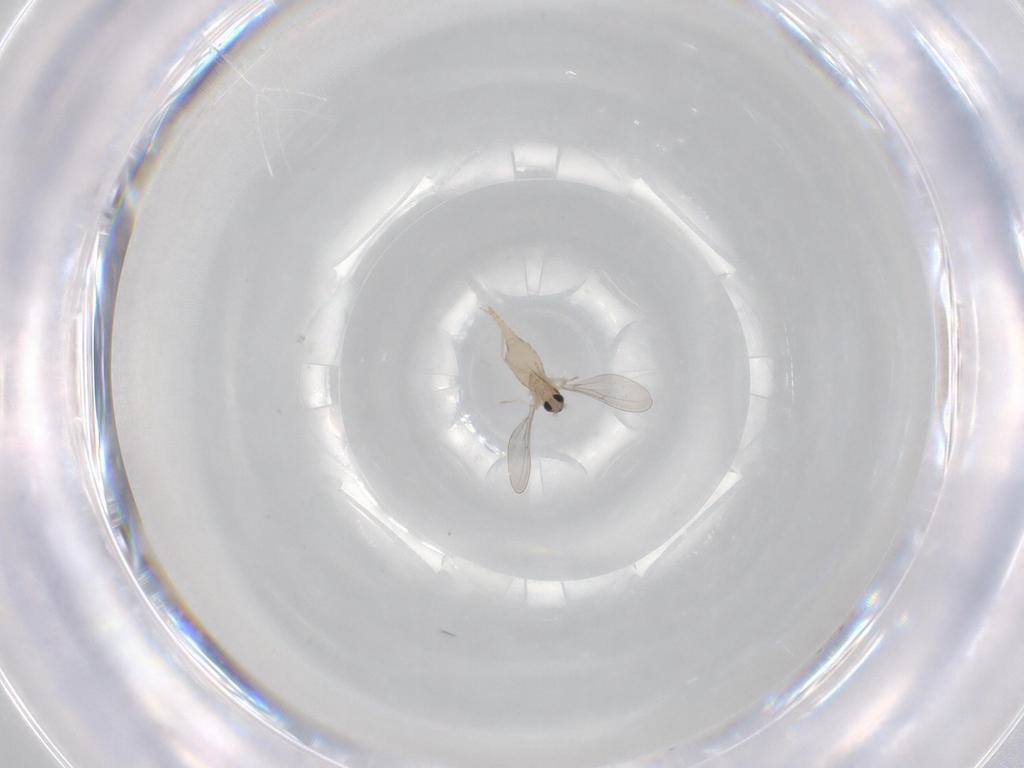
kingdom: Animalia
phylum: Arthropoda
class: Insecta
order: Diptera
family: Cecidomyiidae
